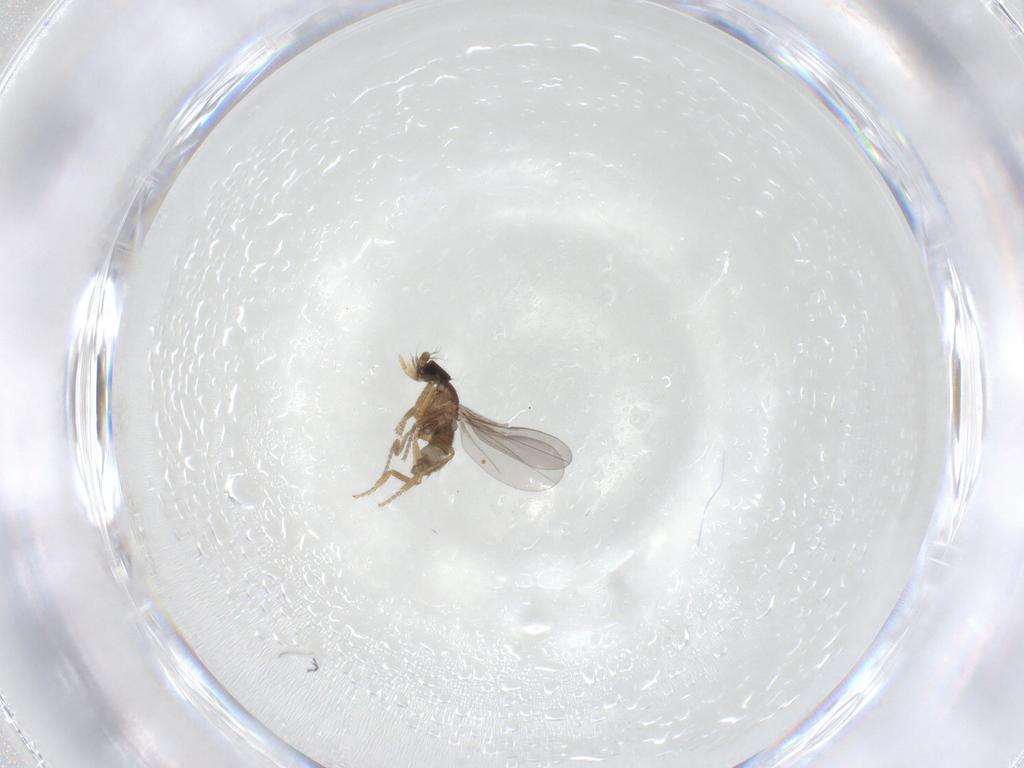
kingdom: Animalia
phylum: Arthropoda
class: Insecta
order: Diptera
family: Phoridae
